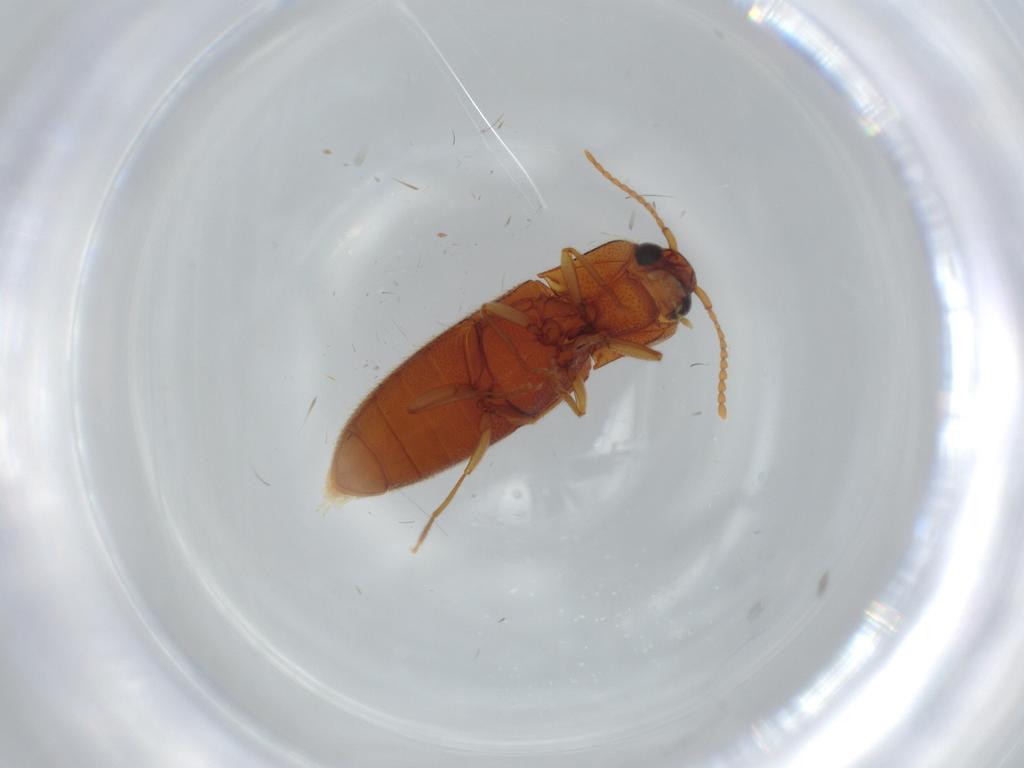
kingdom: Animalia
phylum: Arthropoda
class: Insecta
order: Coleoptera
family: Elateridae
